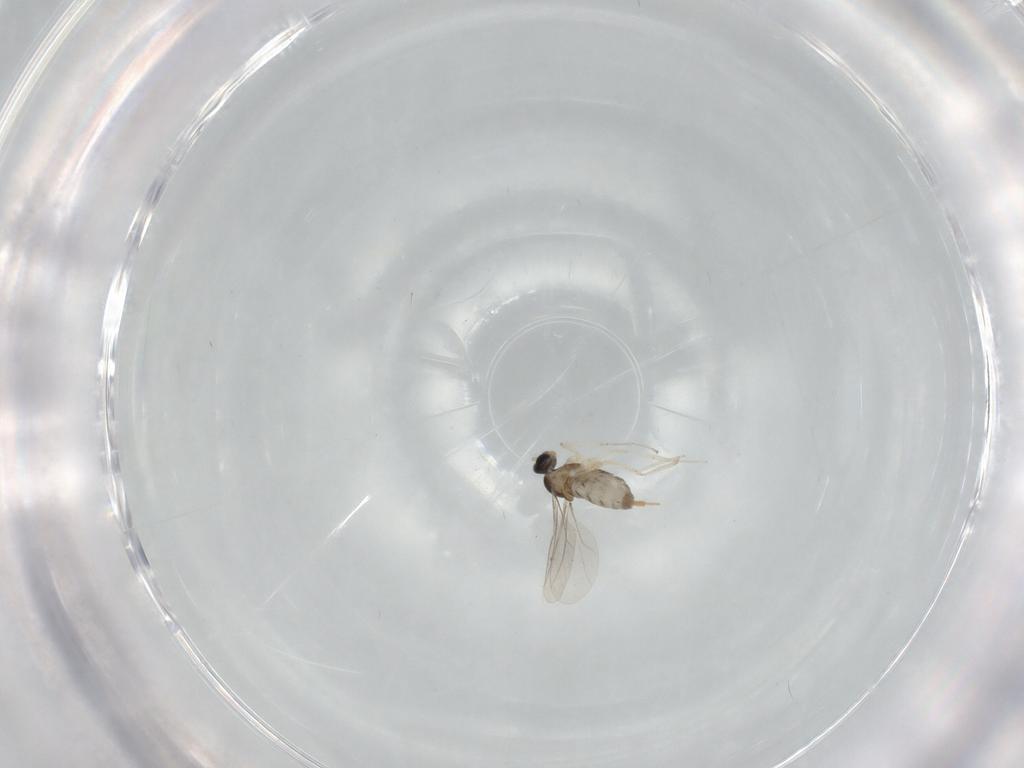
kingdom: Animalia
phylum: Arthropoda
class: Insecta
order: Diptera
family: Cecidomyiidae
